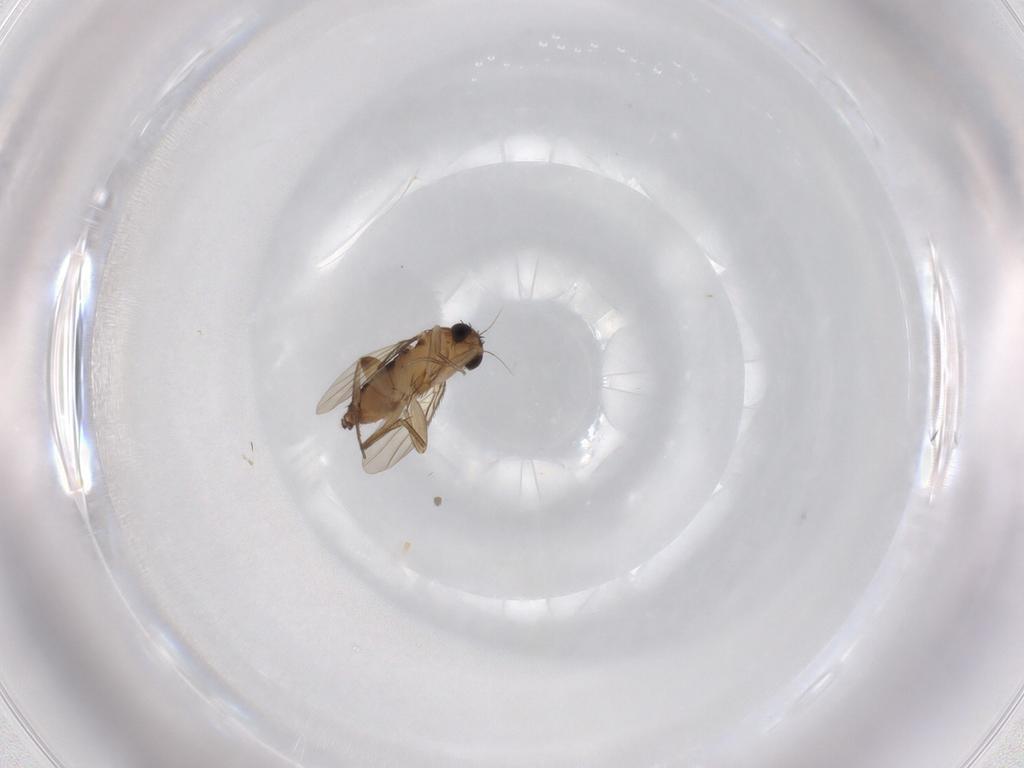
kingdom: Animalia
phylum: Arthropoda
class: Insecta
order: Diptera
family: Phoridae
